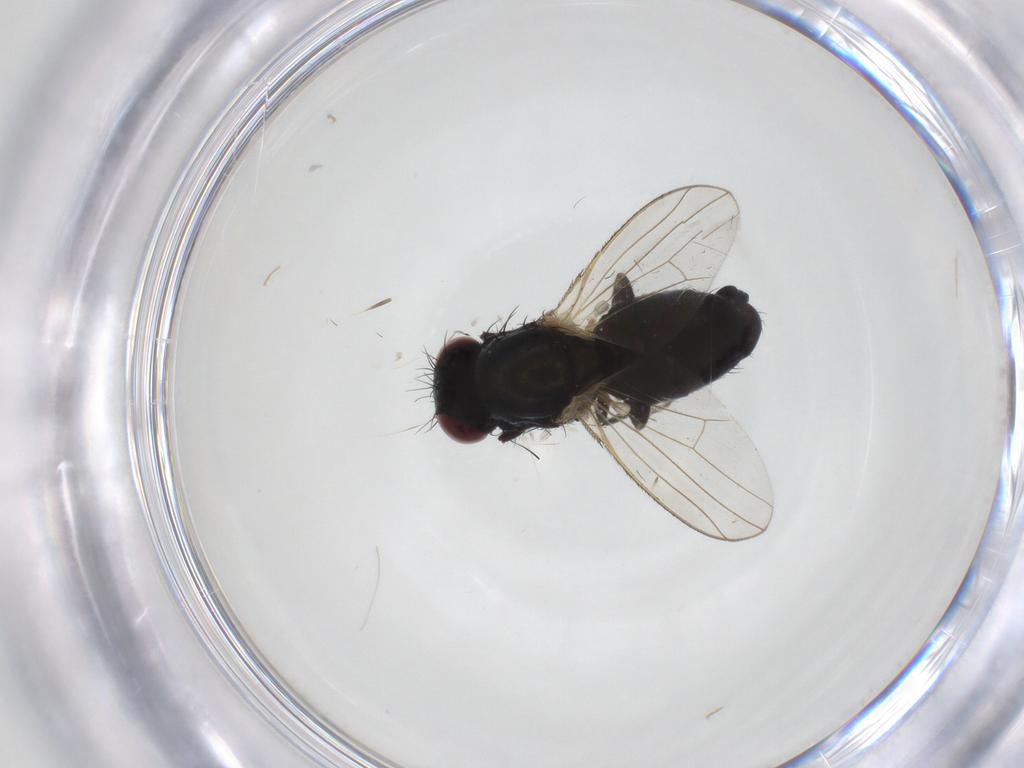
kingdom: Animalia
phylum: Arthropoda
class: Insecta
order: Diptera
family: Carnidae
